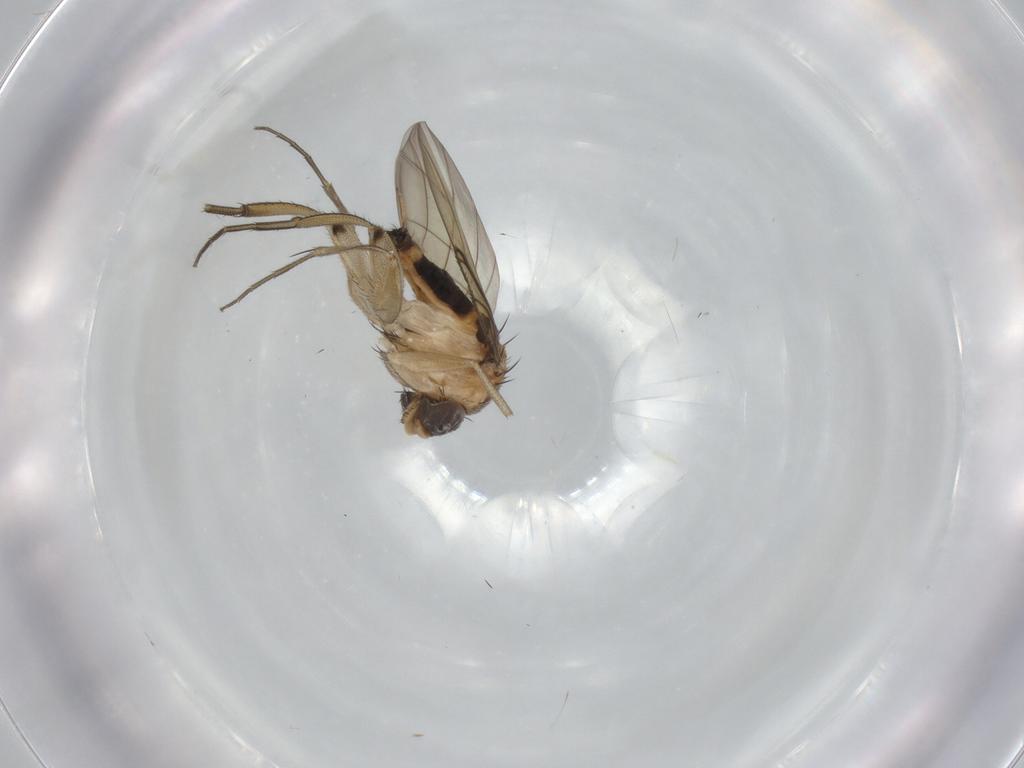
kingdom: Animalia
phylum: Arthropoda
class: Insecta
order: Diptera
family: Phoridae
